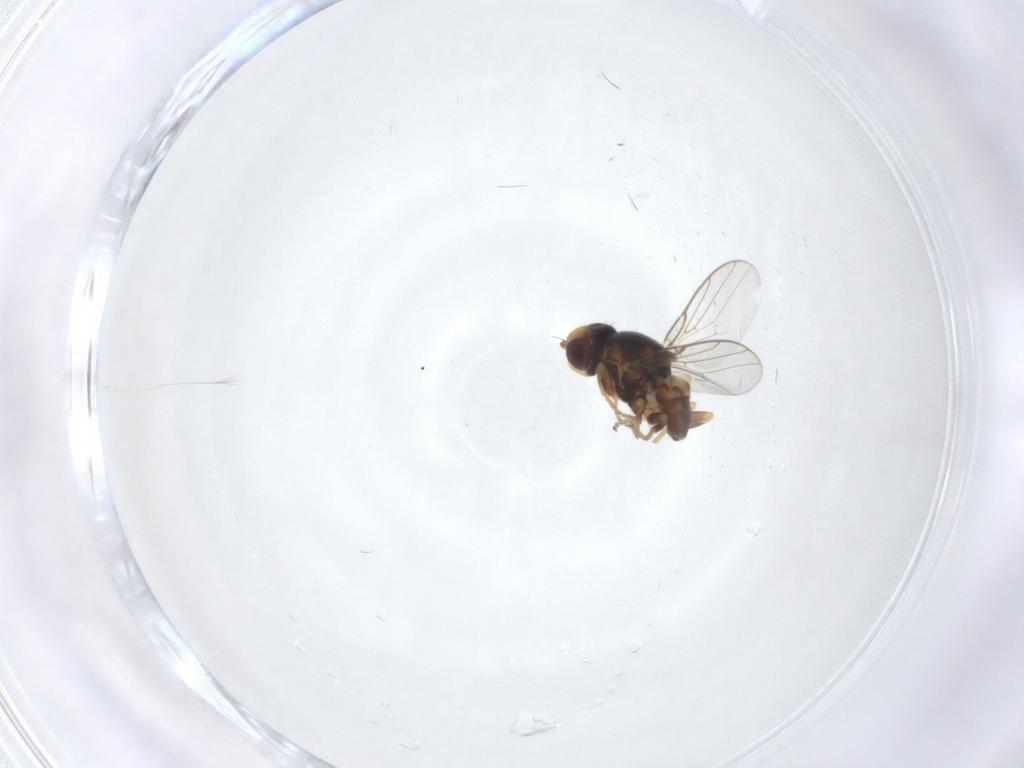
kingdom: Animalia
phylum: Arthropoda
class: Insecta
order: Diptera
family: Chloropidae
